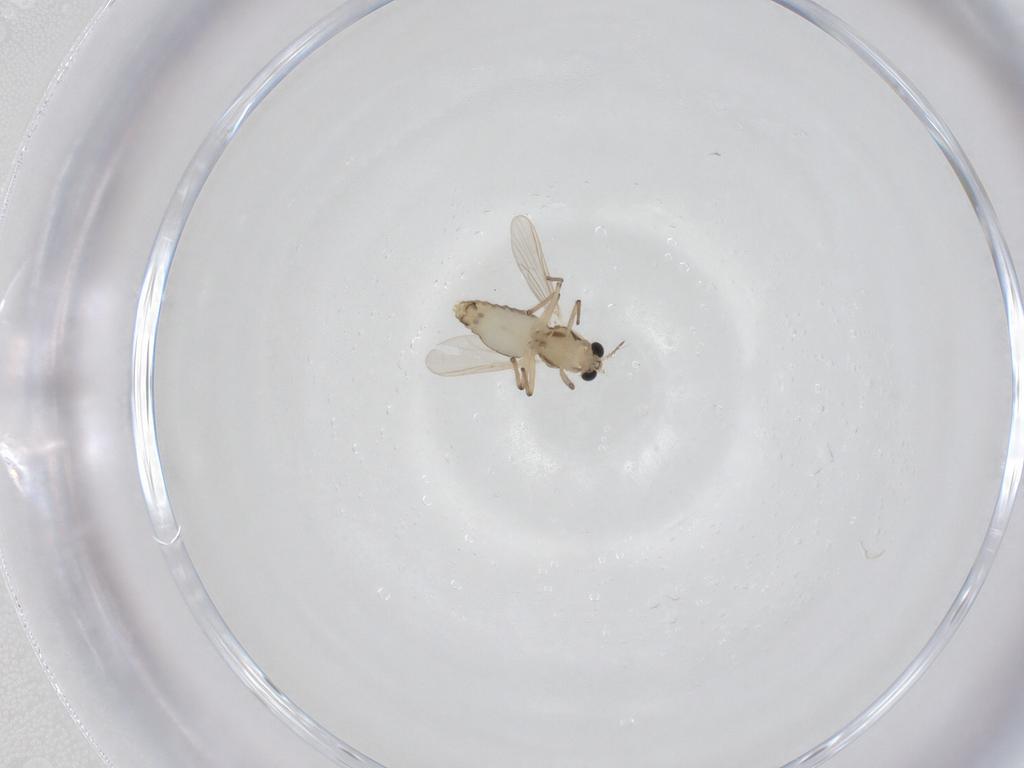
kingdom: Animalia
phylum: Arthropoda
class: Insecta
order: Diptera
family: Chironomidae
